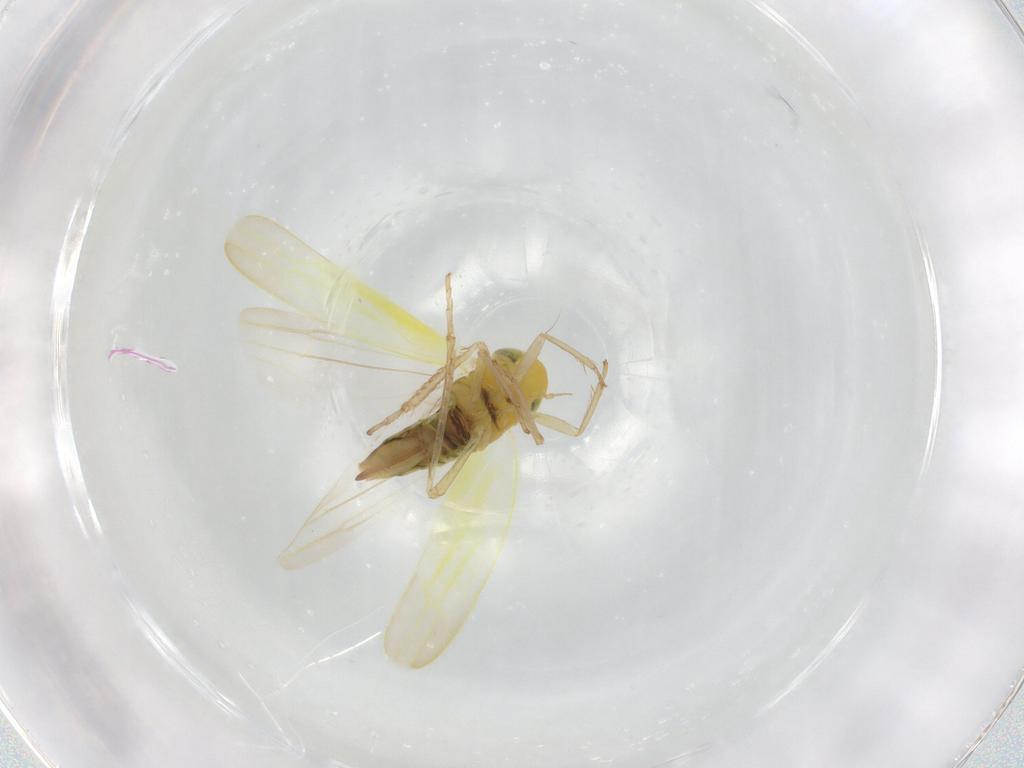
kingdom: Animalia
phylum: Arthropoda
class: Insecta
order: Hemiptera
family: Cicadellidae
